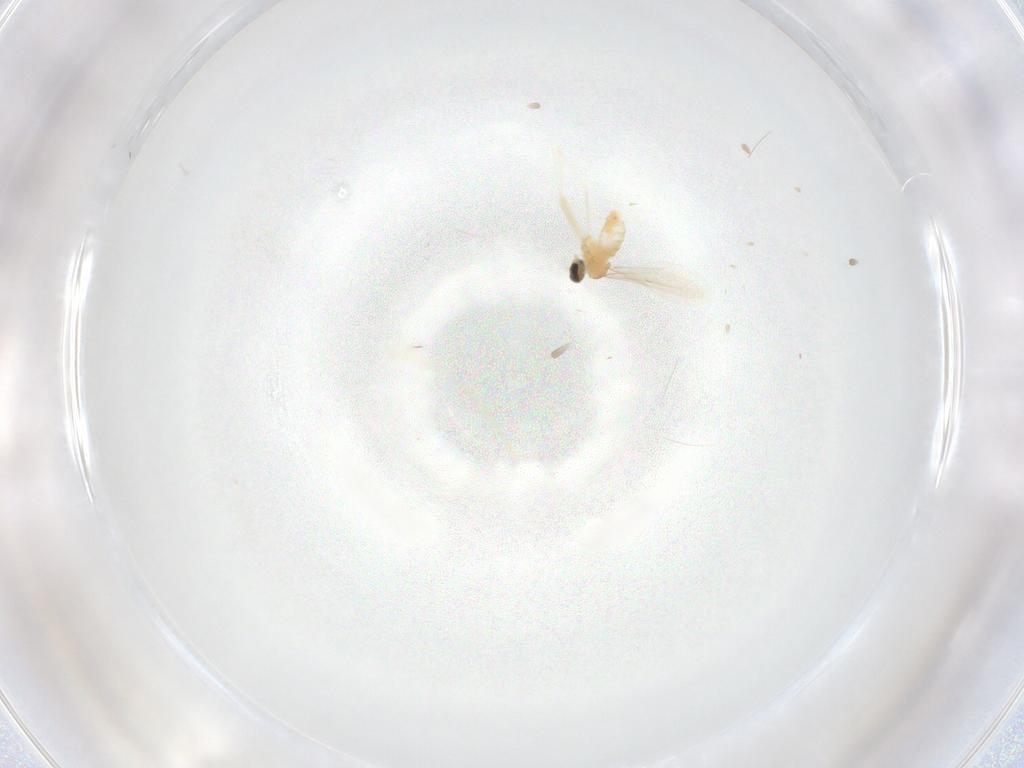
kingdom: Animalia
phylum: Arthropoda
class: Insecta
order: Diptera
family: Cecidomyiidae
